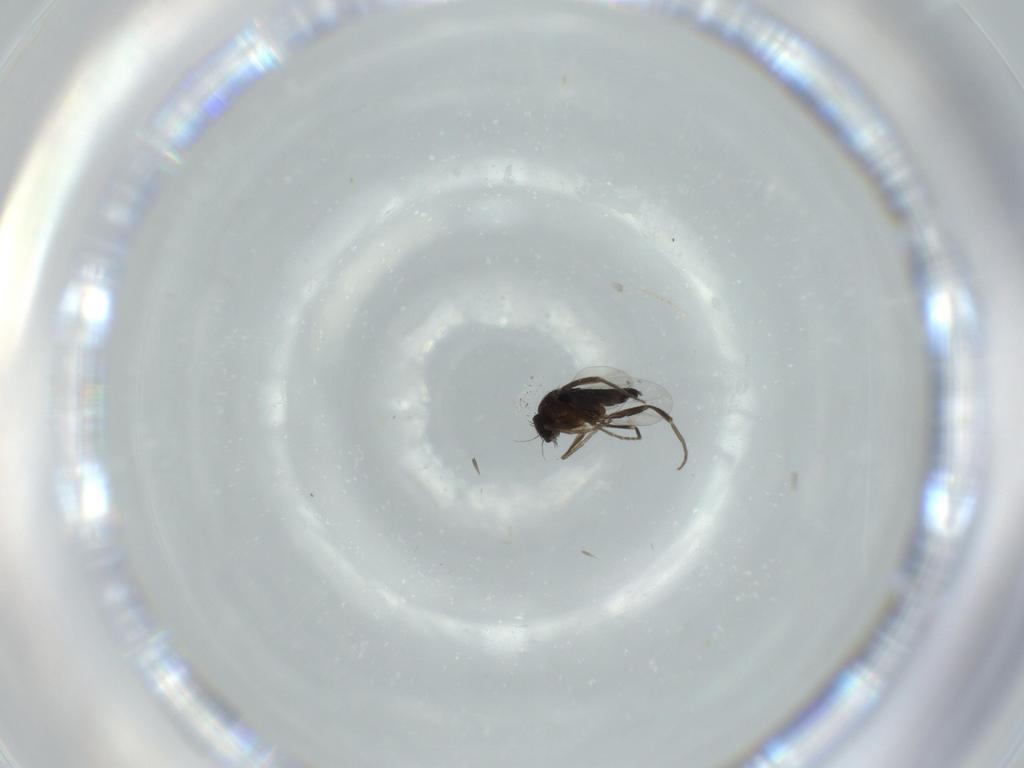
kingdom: Animalia
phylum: Arthropoda
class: Insecta
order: Diptera
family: Phoridae
